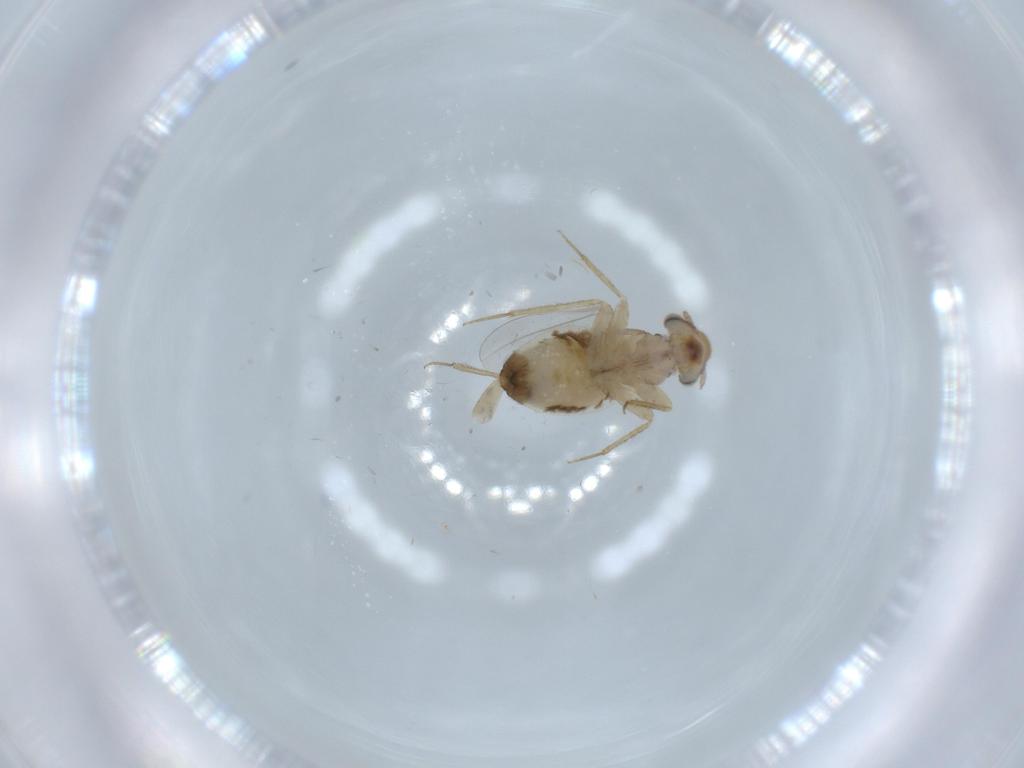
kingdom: Animalia
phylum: Arthropoda
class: Insecta
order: Psocodea
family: Lepidopsocidae
